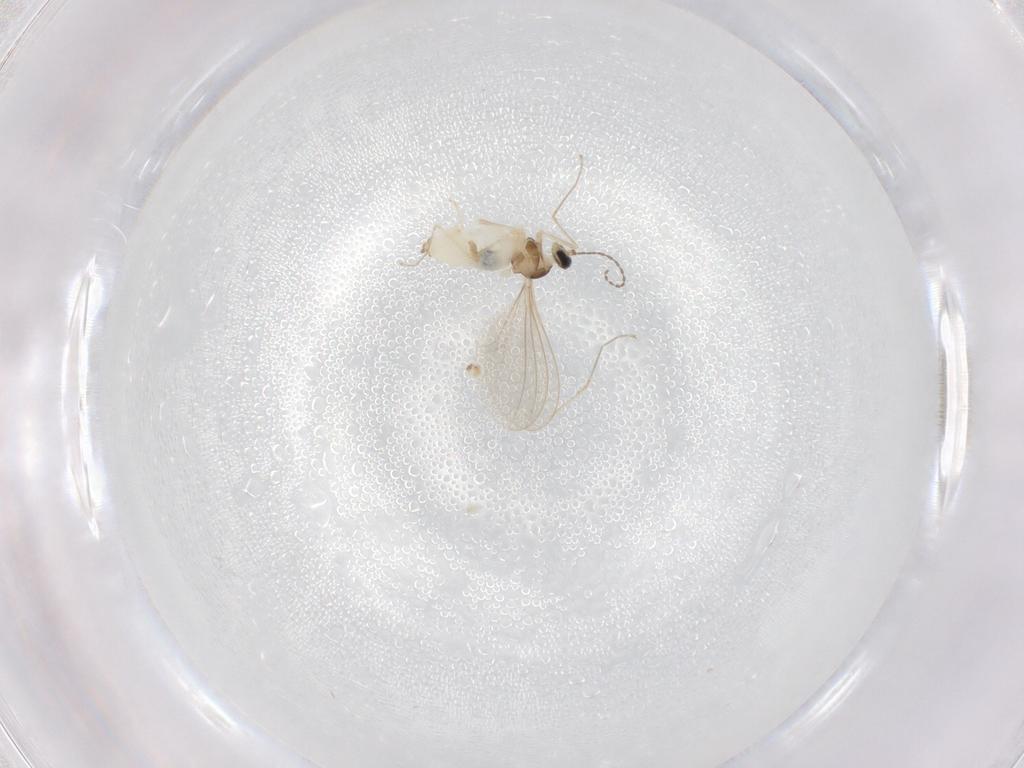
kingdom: Animalia
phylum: Arthropoda
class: Insecta
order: Diptera
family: Cecidomyiidae
